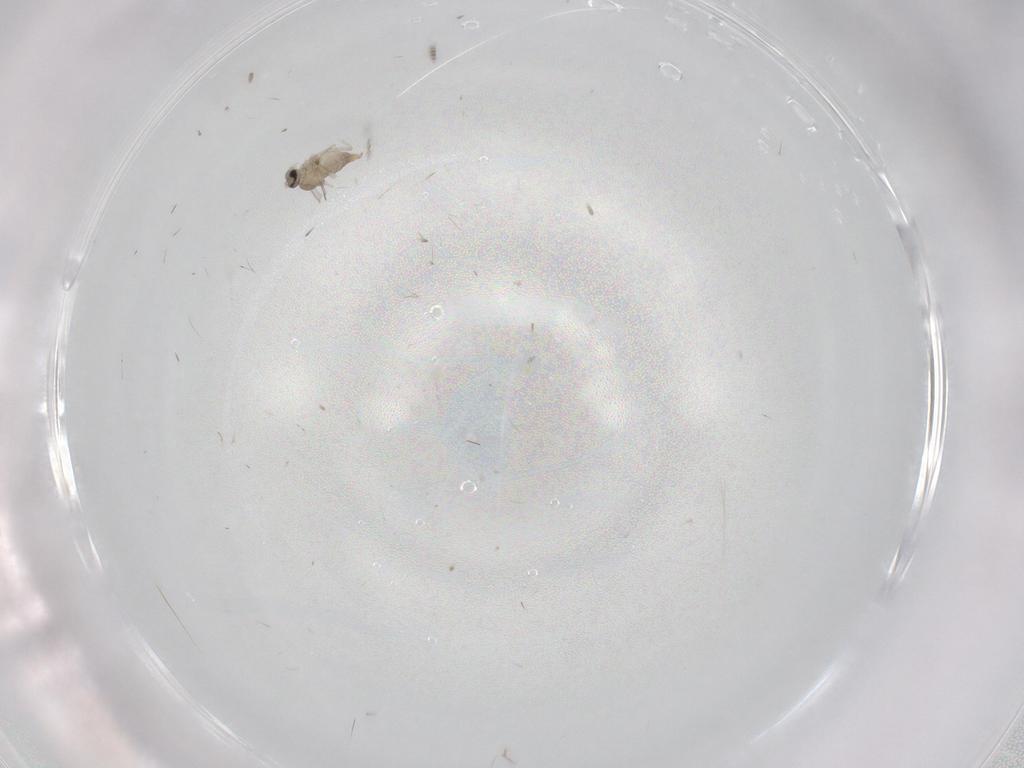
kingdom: Animalia
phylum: Arthropoda
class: Insecta
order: Diptera
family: Cecidomyiidae
